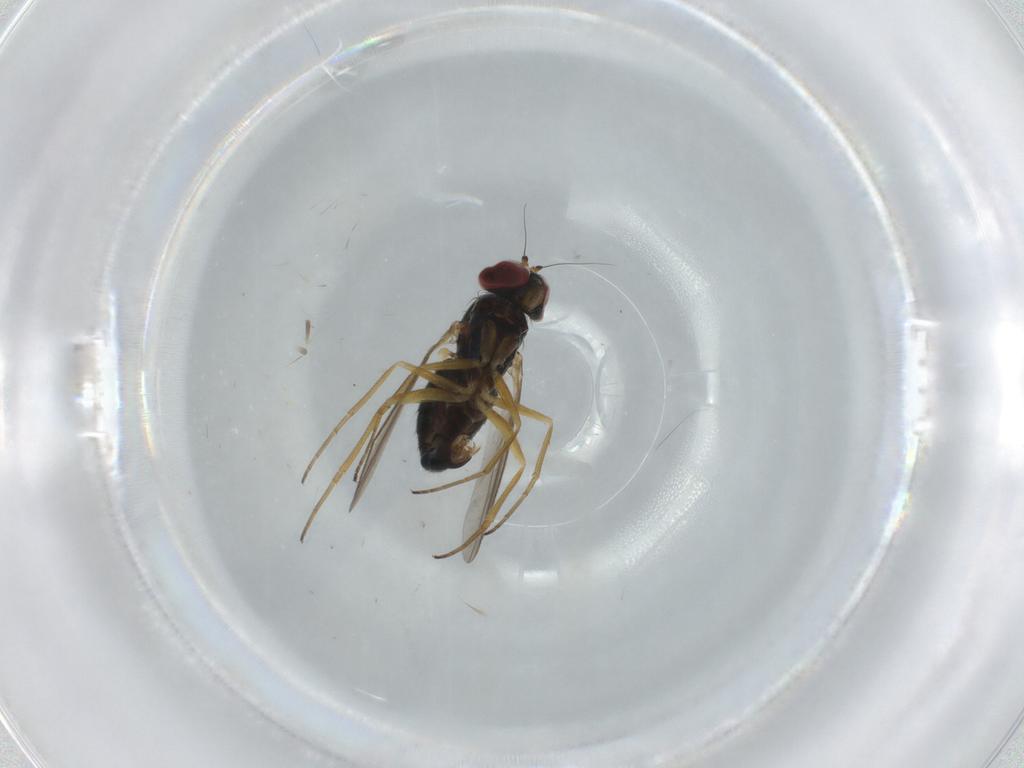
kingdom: Animalia
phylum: Arthropoda
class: Insecta
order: Diptera
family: Dolichopodidae
